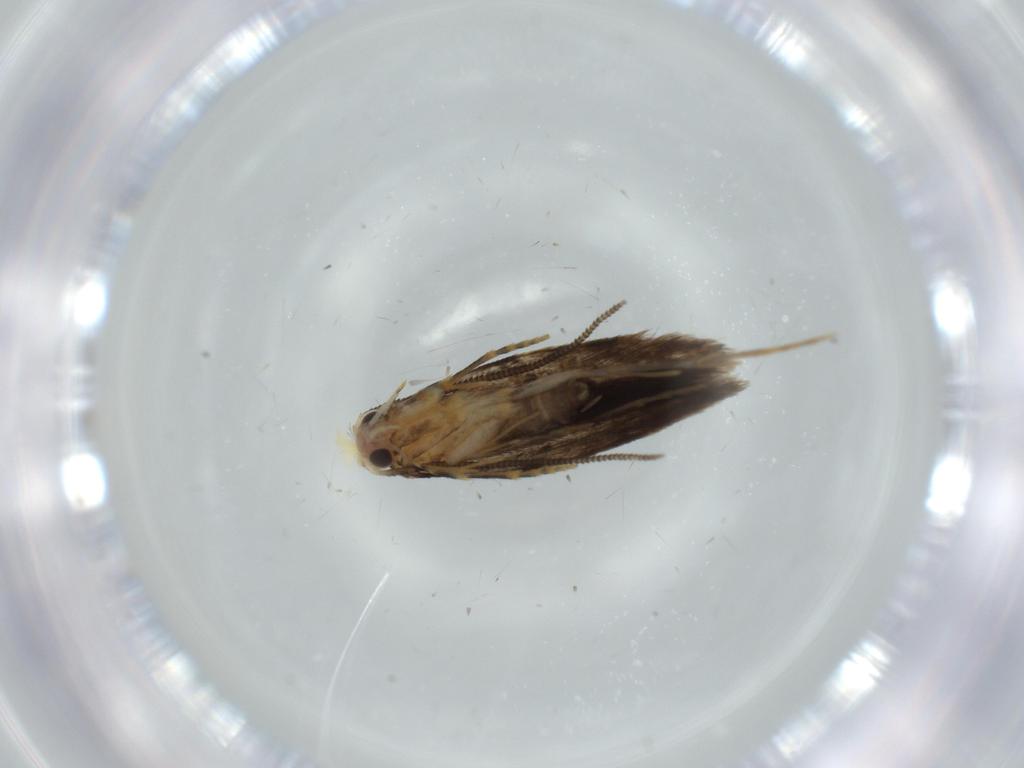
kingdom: Animalia
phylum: Arthropoda
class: Insecta
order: Lepidoptera
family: Tineidae
